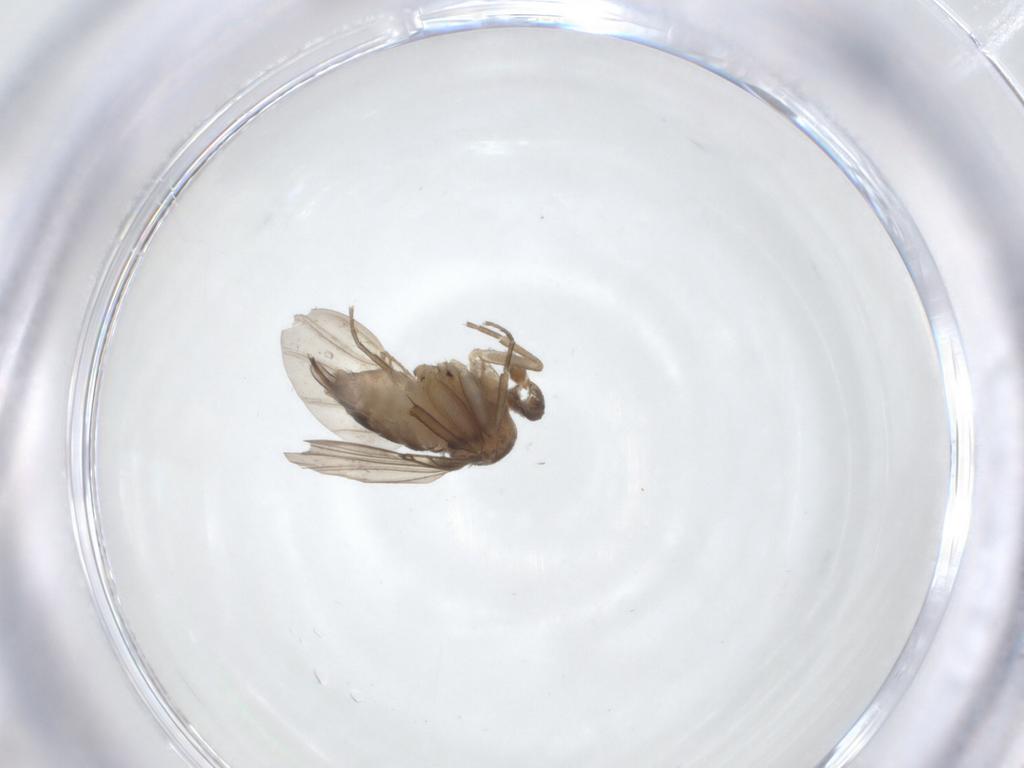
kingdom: Animalia
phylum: Arthropoda
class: Insecta
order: Diptera
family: Phoridae
